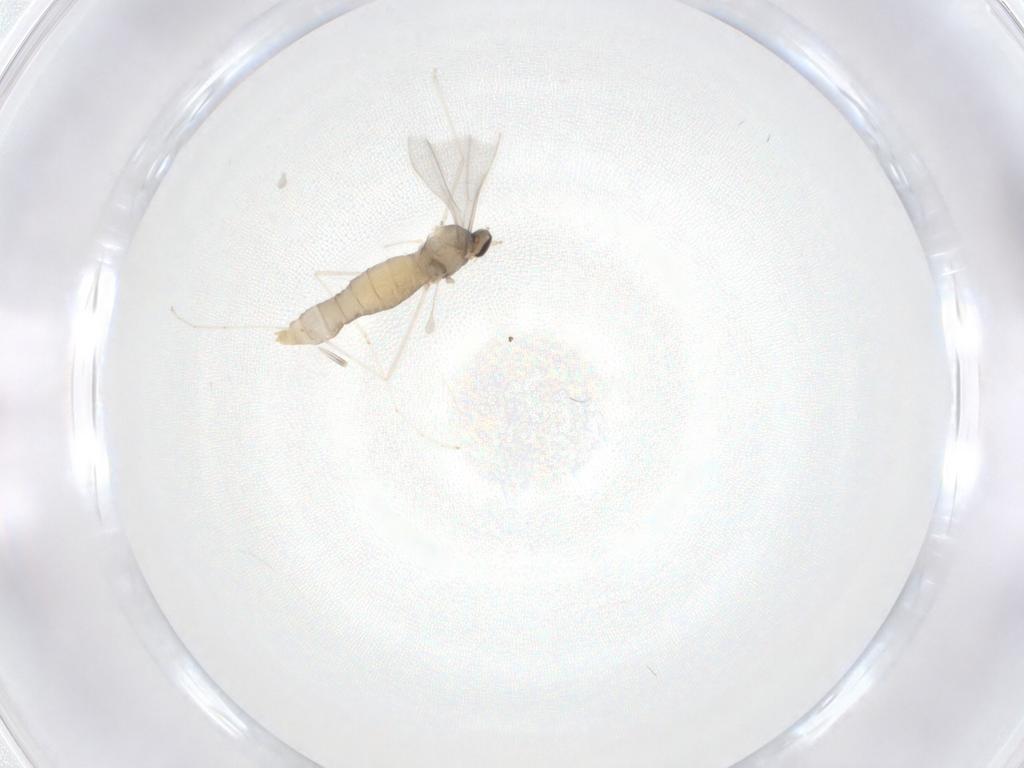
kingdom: Animalia
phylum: Arthropoda
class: Insecta
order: Diptera
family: Cecidomyiidae
